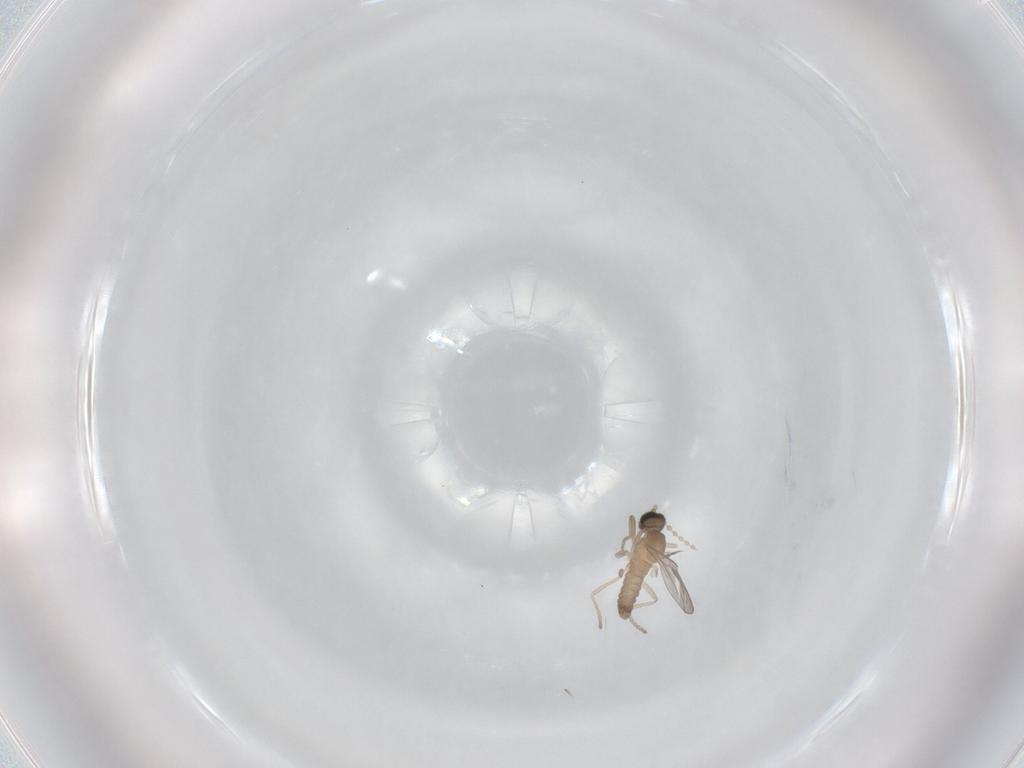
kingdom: Animalia
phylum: Arthropoda
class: Insecta
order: Diptera
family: Cecidomyiidae
